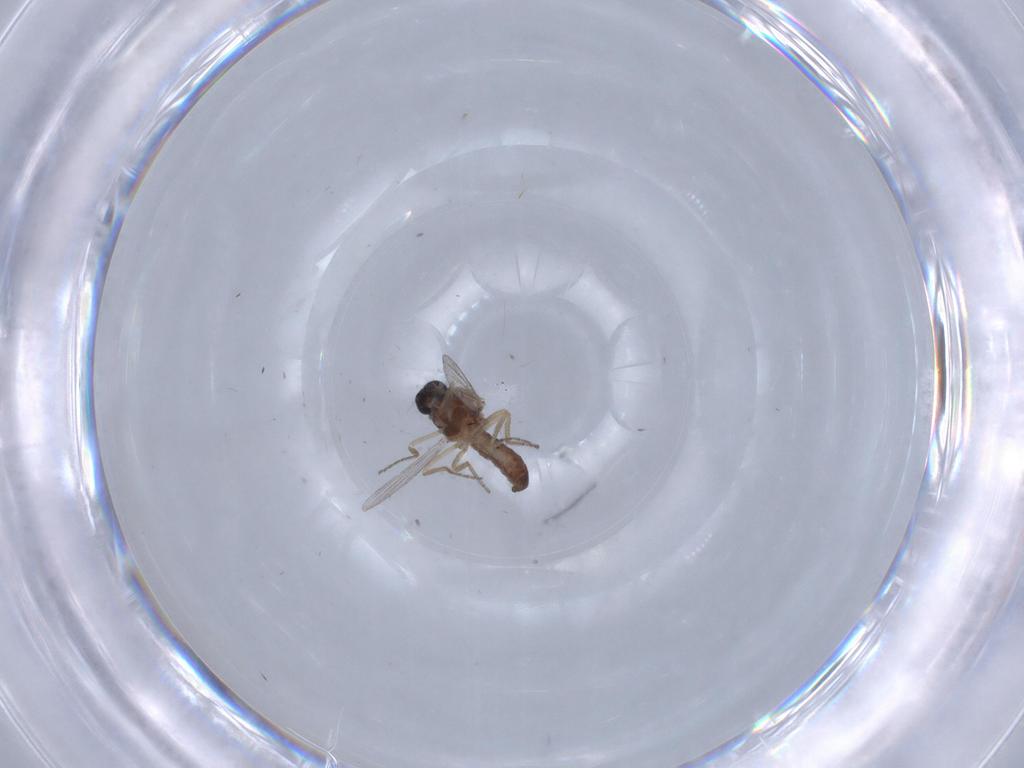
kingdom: Animalia
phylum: Arthropoda
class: Insecta
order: Diptera
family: Ceratopogonidae
